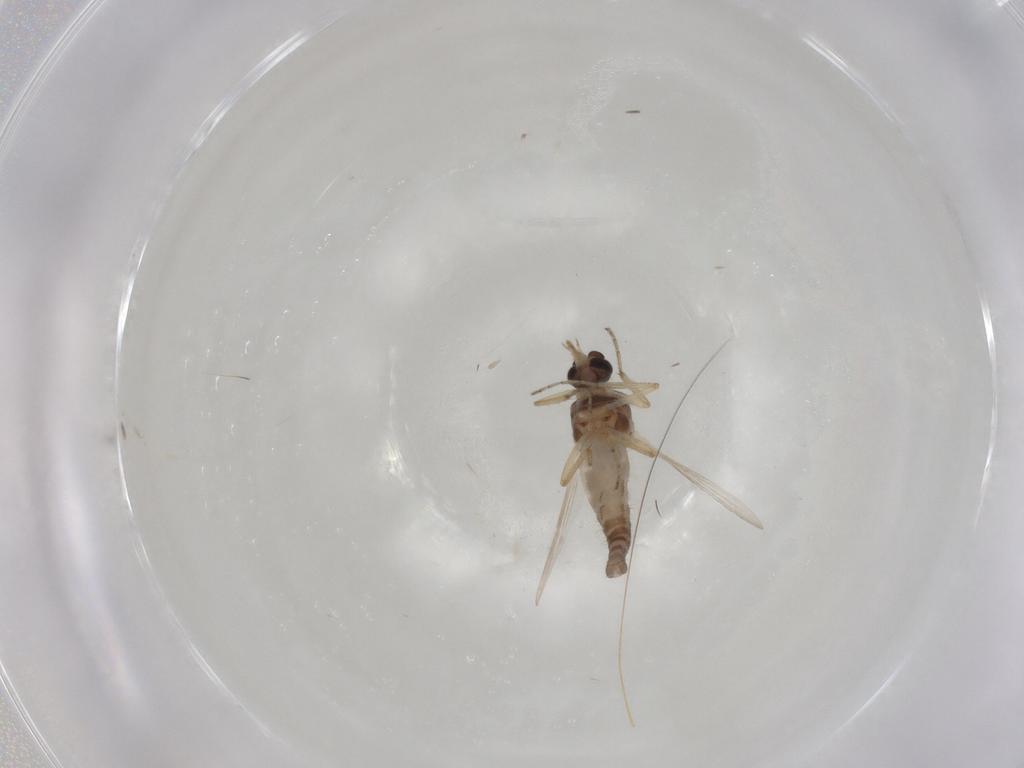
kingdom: Animalia
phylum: Arthropoda
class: Insecta
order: Diptera
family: Ceratopogonidae
